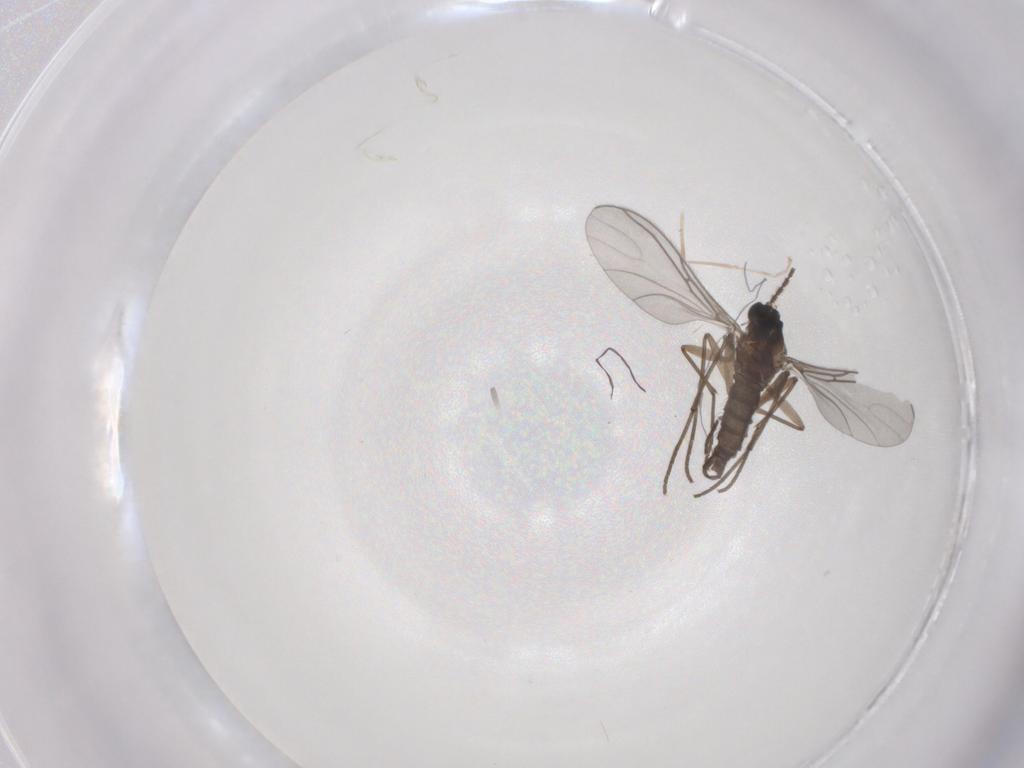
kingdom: Animalia
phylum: Arthropoda
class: Insecta
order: Diptera
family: Cecidomyiidae
